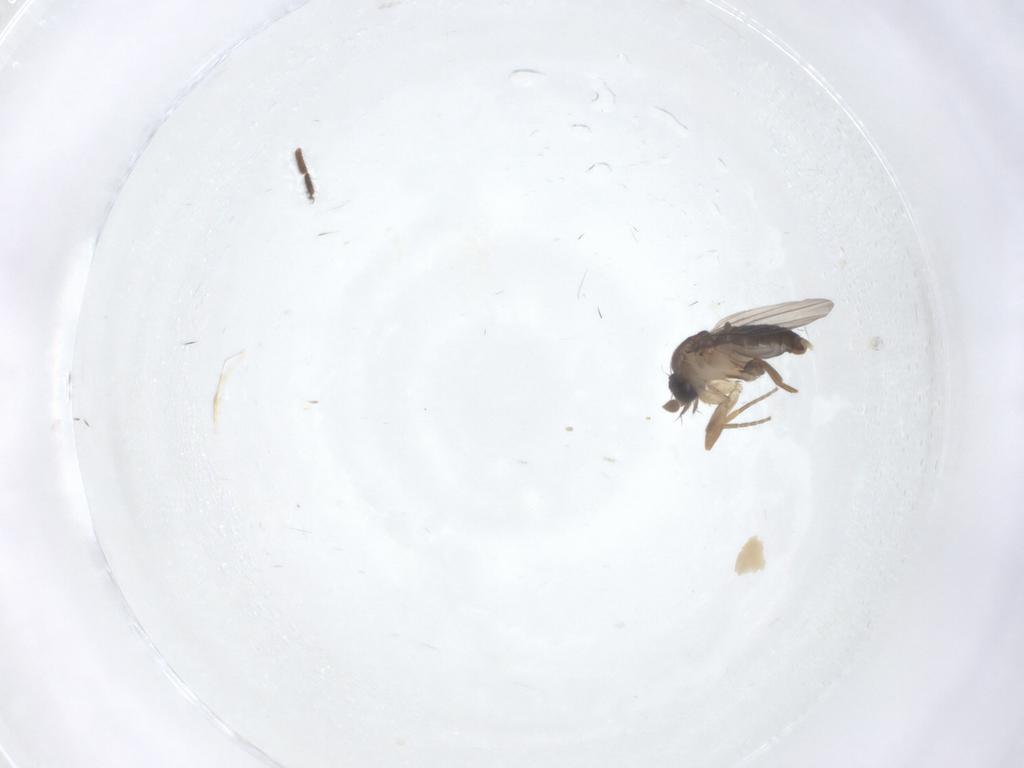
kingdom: Animalia
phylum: Arthropoda
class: Insecta
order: Diptera
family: Phoridae
